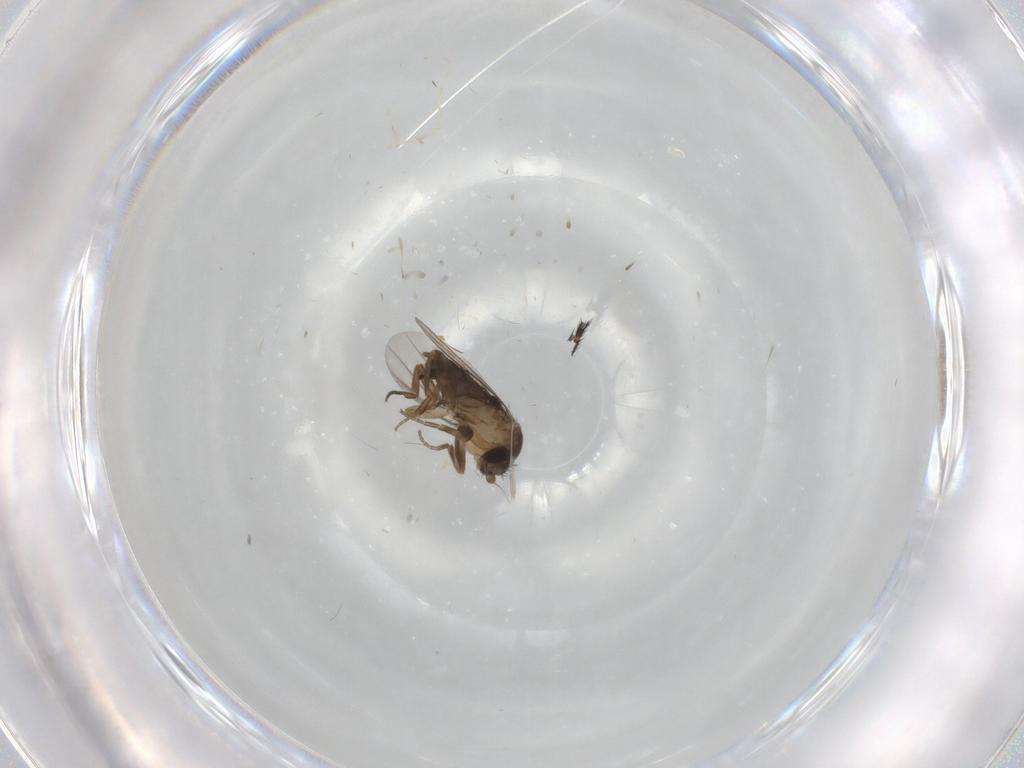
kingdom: Animalia
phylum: Arthropoda
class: Insecta
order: Diptera
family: Phoridae
